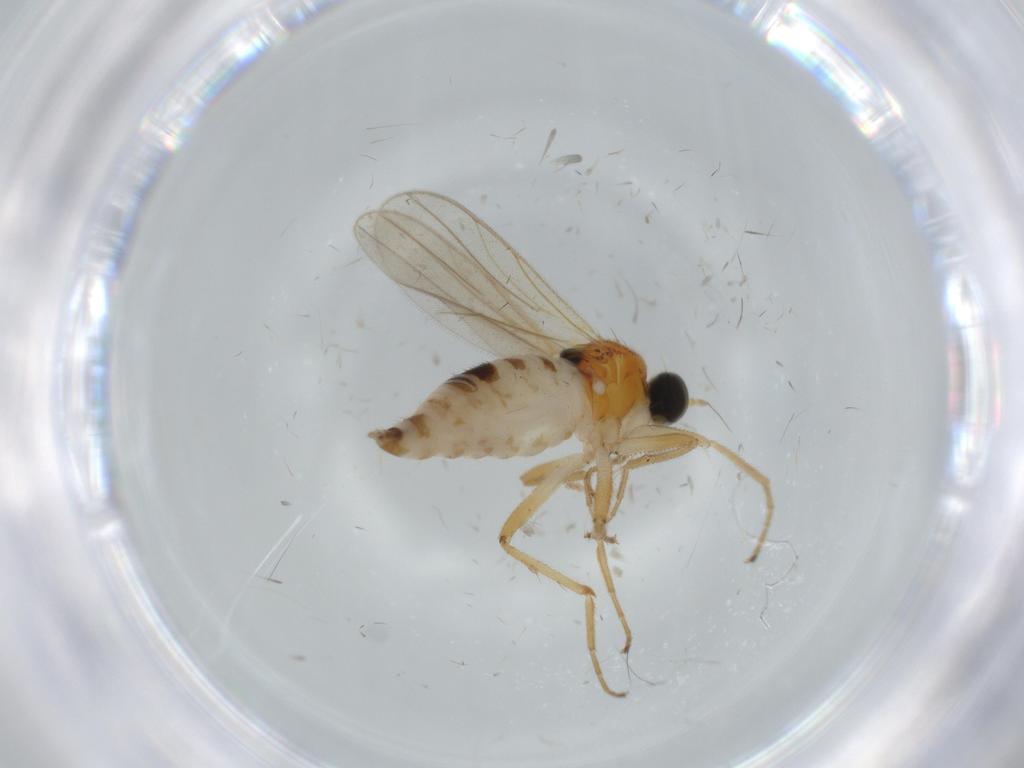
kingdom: Animalia
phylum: Arthropoda
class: Insecta
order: Diptera
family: Hybotidae
